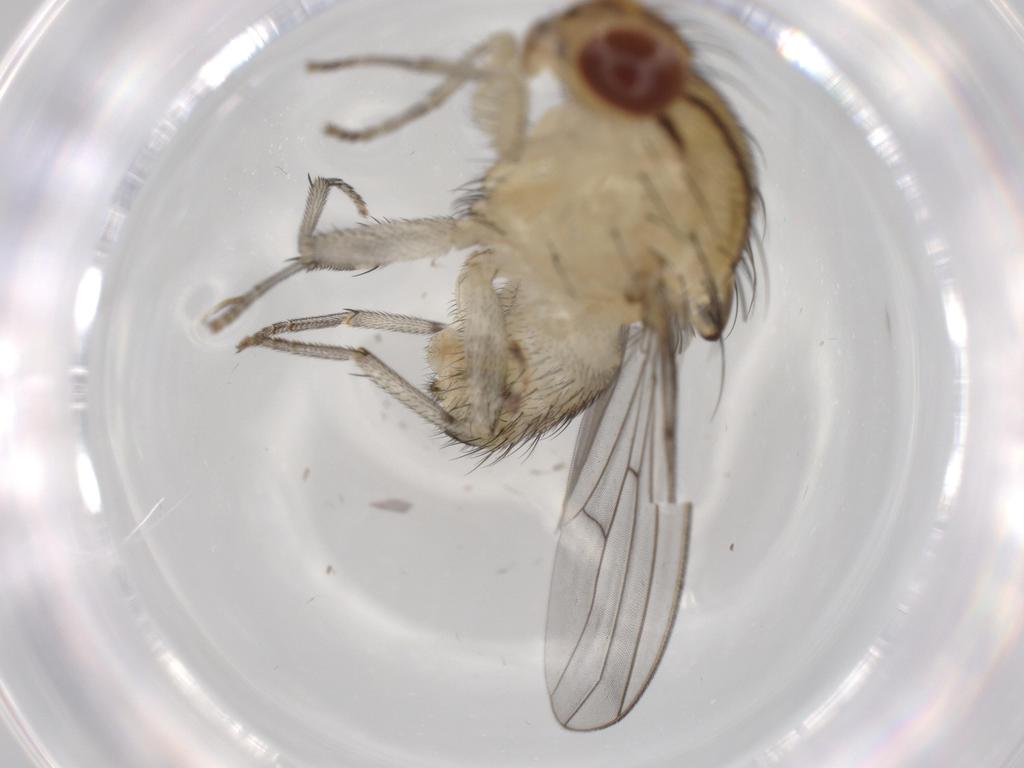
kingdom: Animalia
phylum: Arthropoda
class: Insecta
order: Diptera
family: Sciaridae
